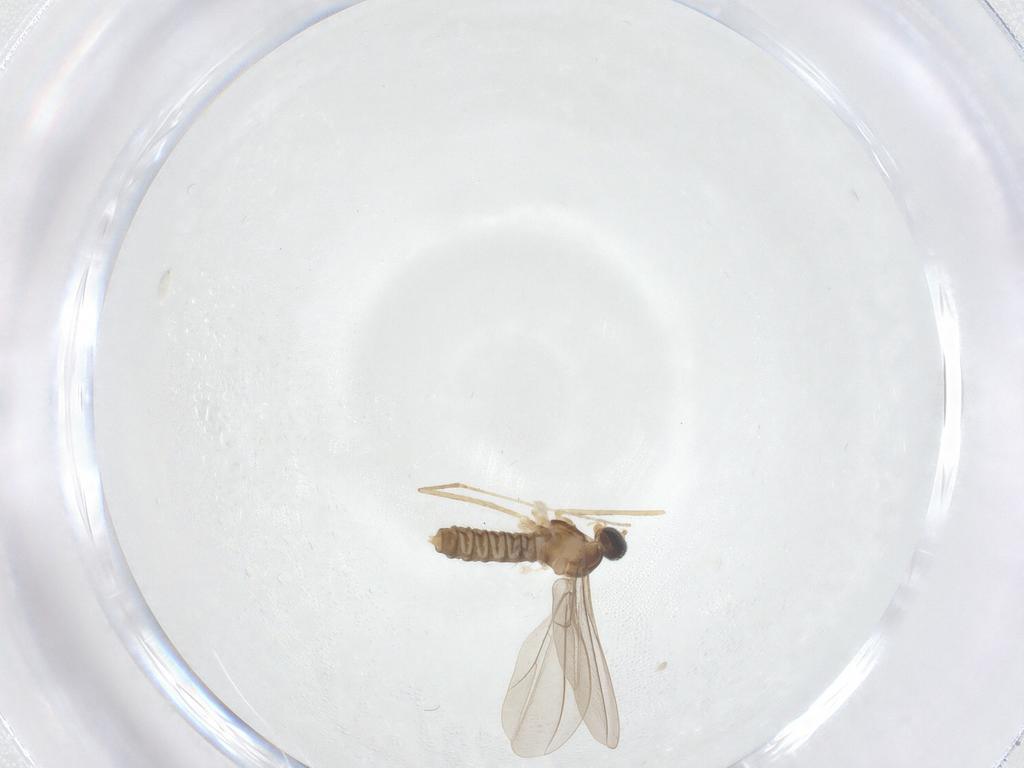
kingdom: Animalia
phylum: Arthropoda
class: Insecta
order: Diptera
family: Cecidomyiidae
